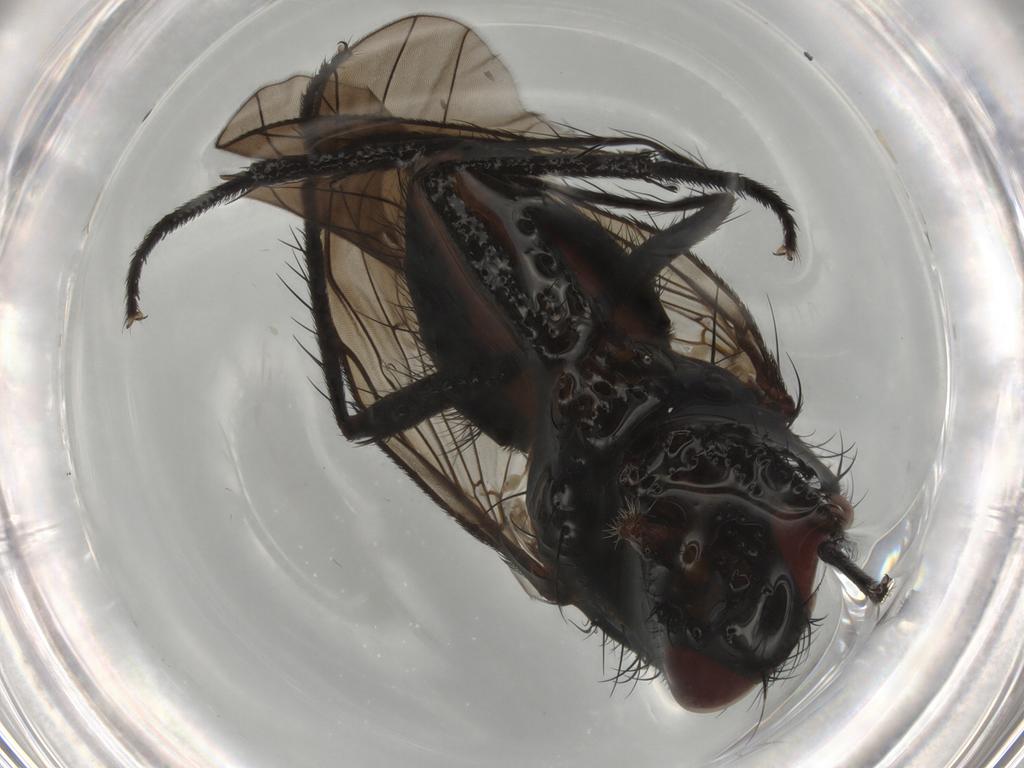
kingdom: Animalia
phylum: Arthropoda
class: Insecta
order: Diptera
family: Anthomyiidae
